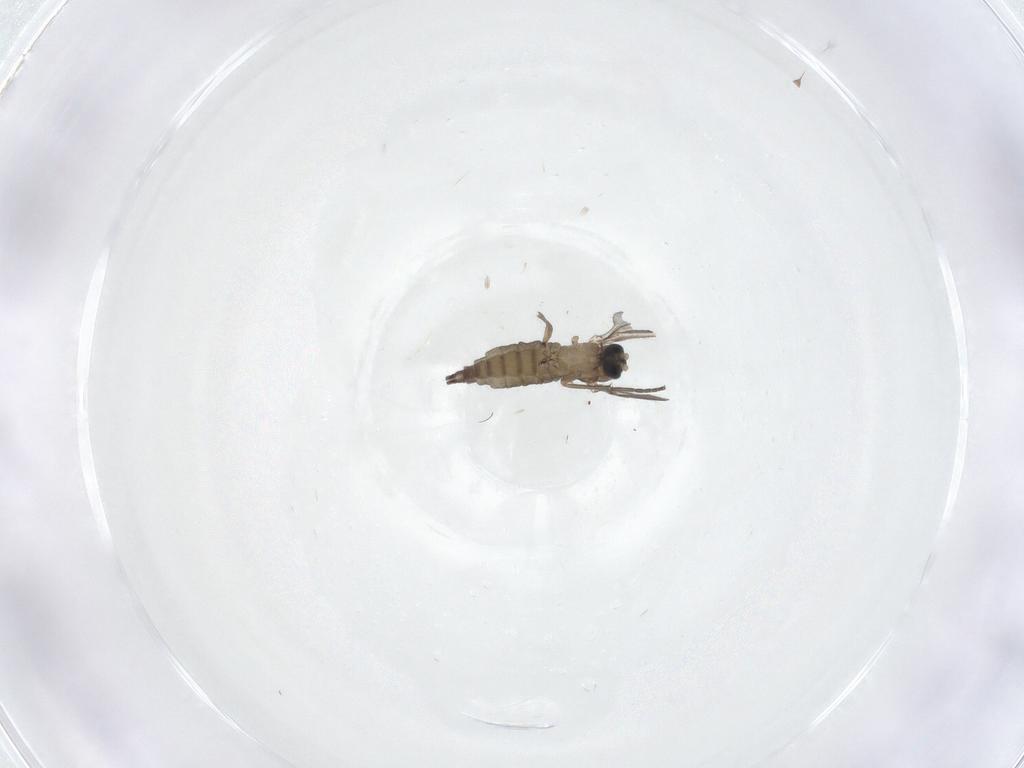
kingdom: Animalia
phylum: Arthropoda
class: Insecta
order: Diptera
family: Sciaridae
